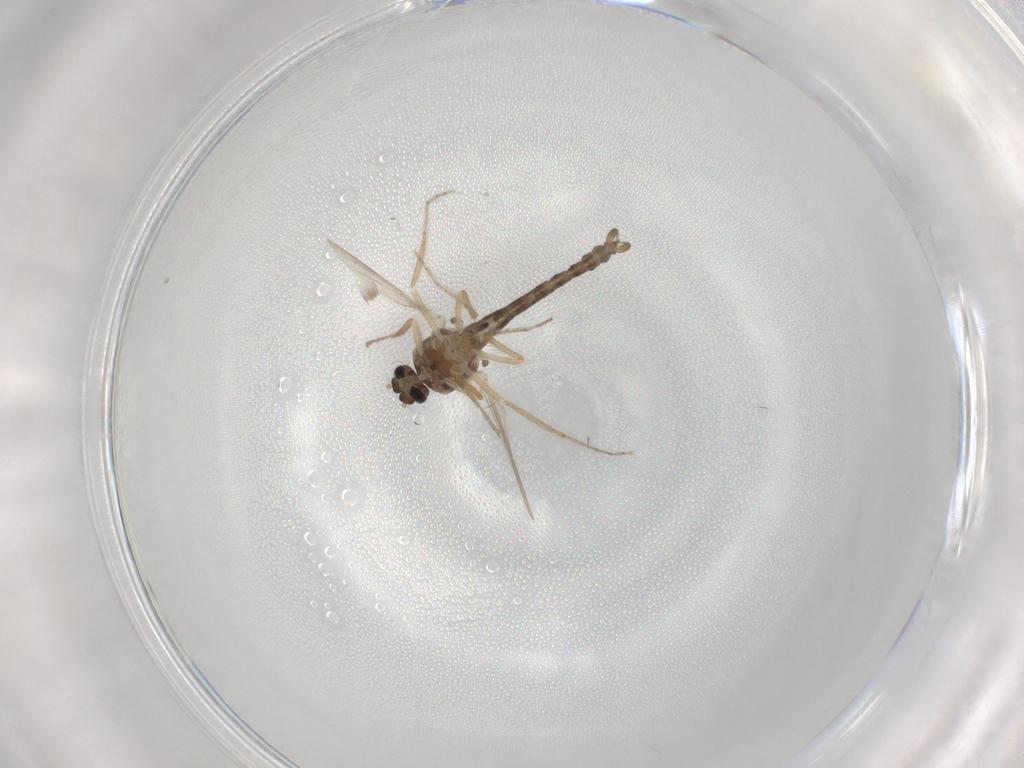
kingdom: Animalia
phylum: Arthropoda
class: Insecta
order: Diptera
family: Ceratopogonidae
